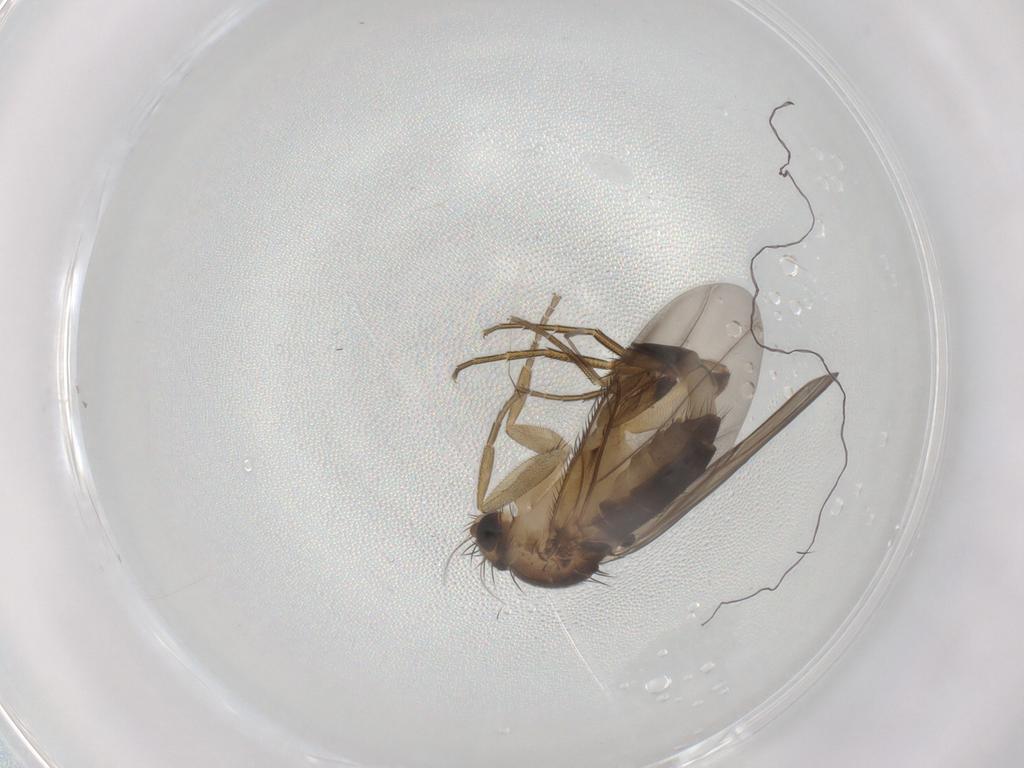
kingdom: Animalia
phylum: Arthropoda
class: Insecta
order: Diptera
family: Phoridae
